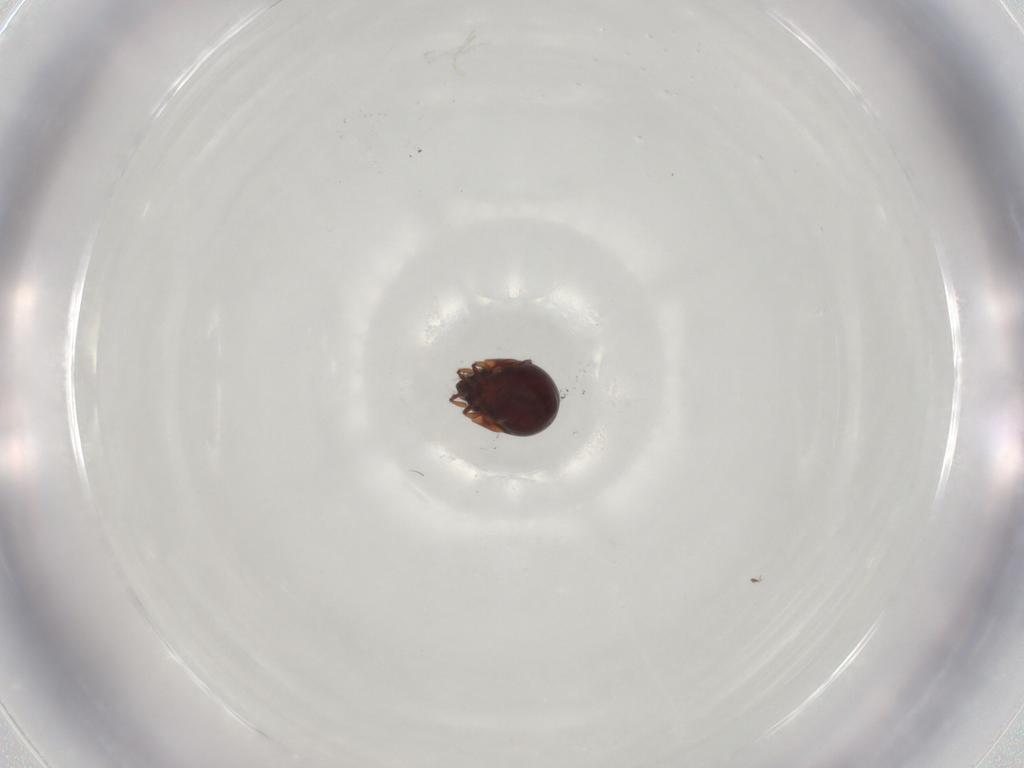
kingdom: Animalia
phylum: Arthropoda
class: Arachnida
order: Sarcoptiformes
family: Humerobatidae
